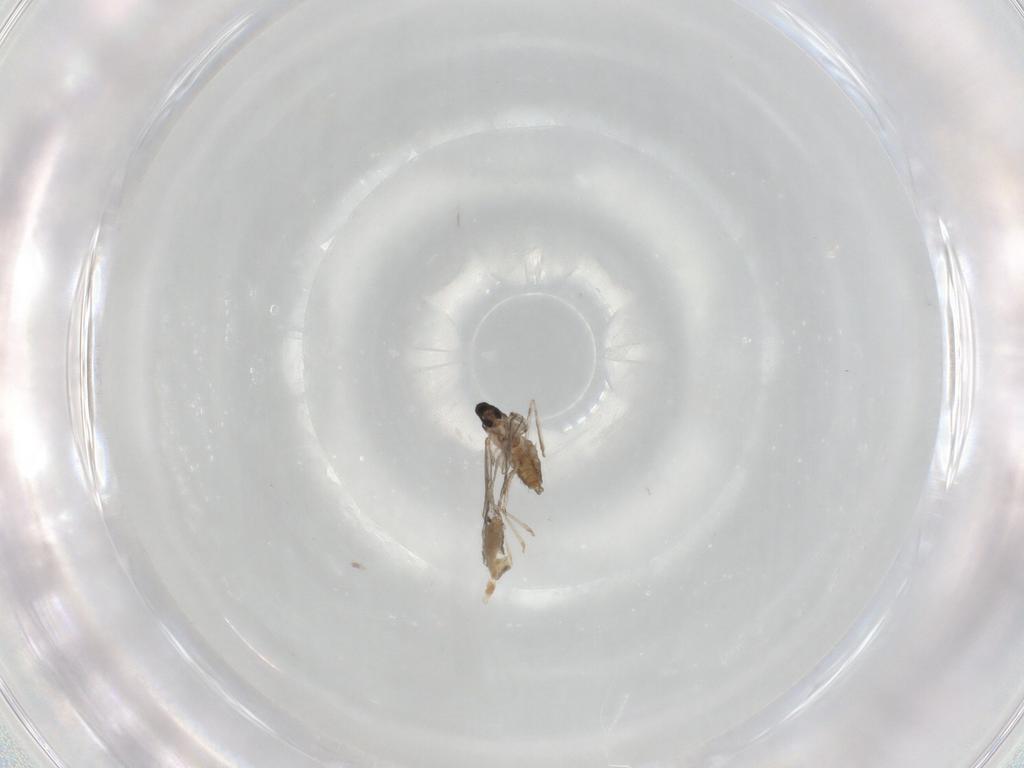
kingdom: Animalia
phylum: Arthropoda
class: Insecta
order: Diptera
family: Cecidomyiidae
